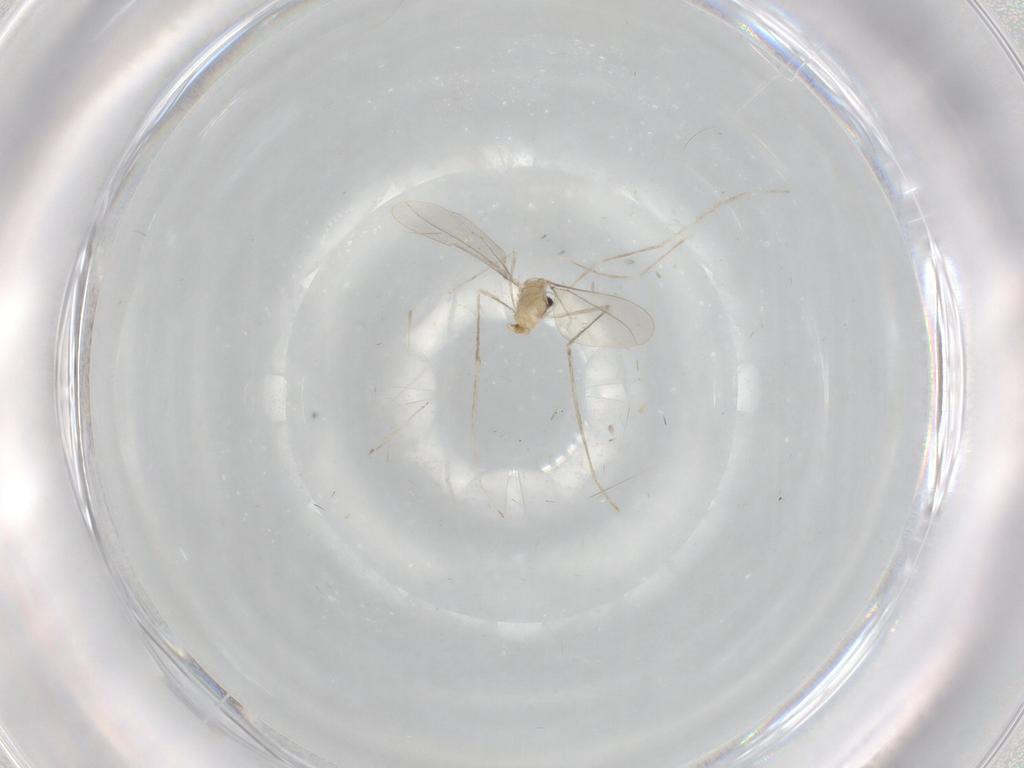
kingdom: Animalia
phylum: Arthropoda
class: Insecta
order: Diptera
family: Cecidomyiidae
